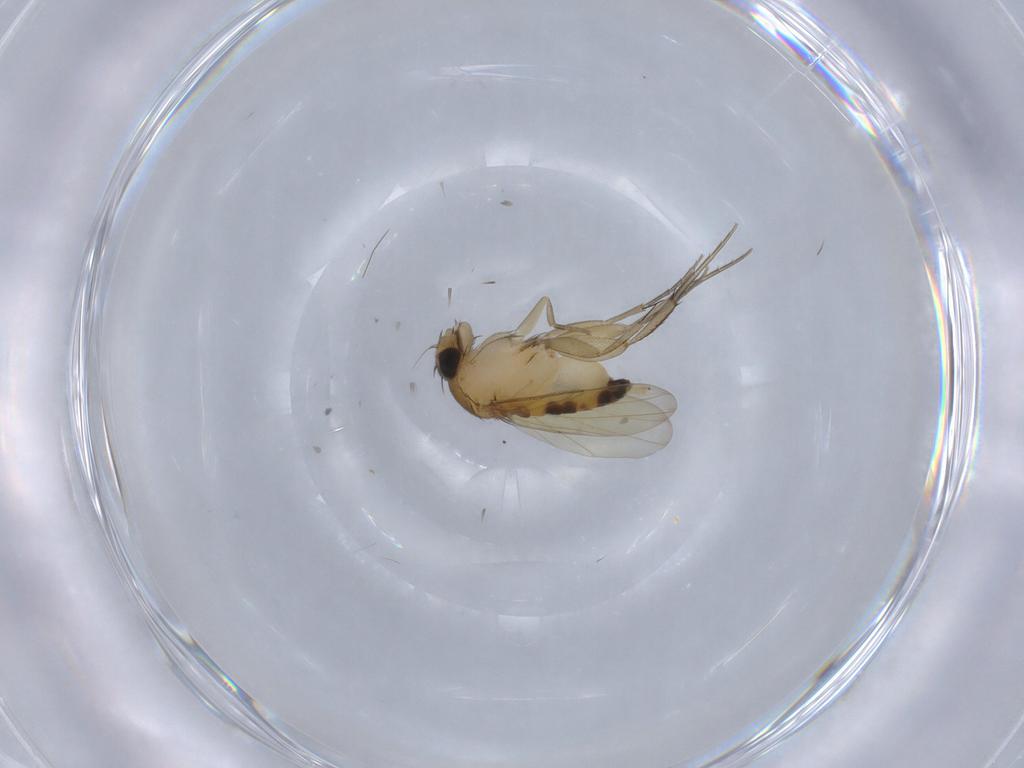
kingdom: Animalia
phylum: Arthropoda
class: Insecta
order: Diptera
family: Phoridae
